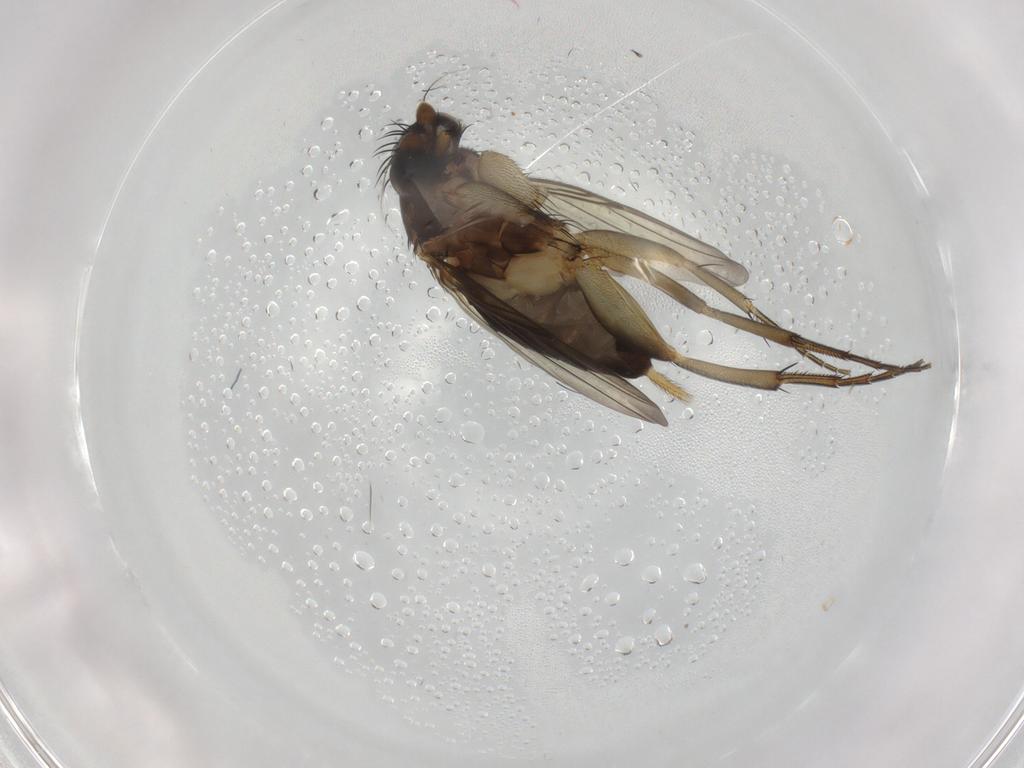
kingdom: Animalia
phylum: Arthropoda
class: Insecta
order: Diptera
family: Phoridae
